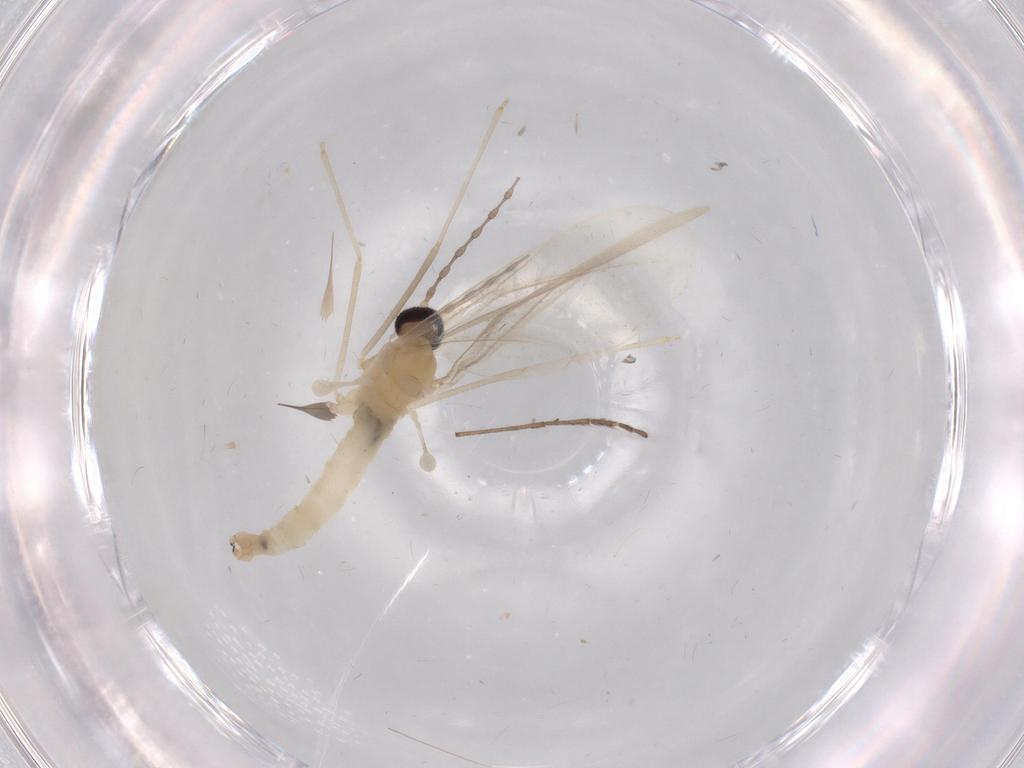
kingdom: Animalia
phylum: Arthropoda
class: Insecta
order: Diptera
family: Cecidomyiidae
